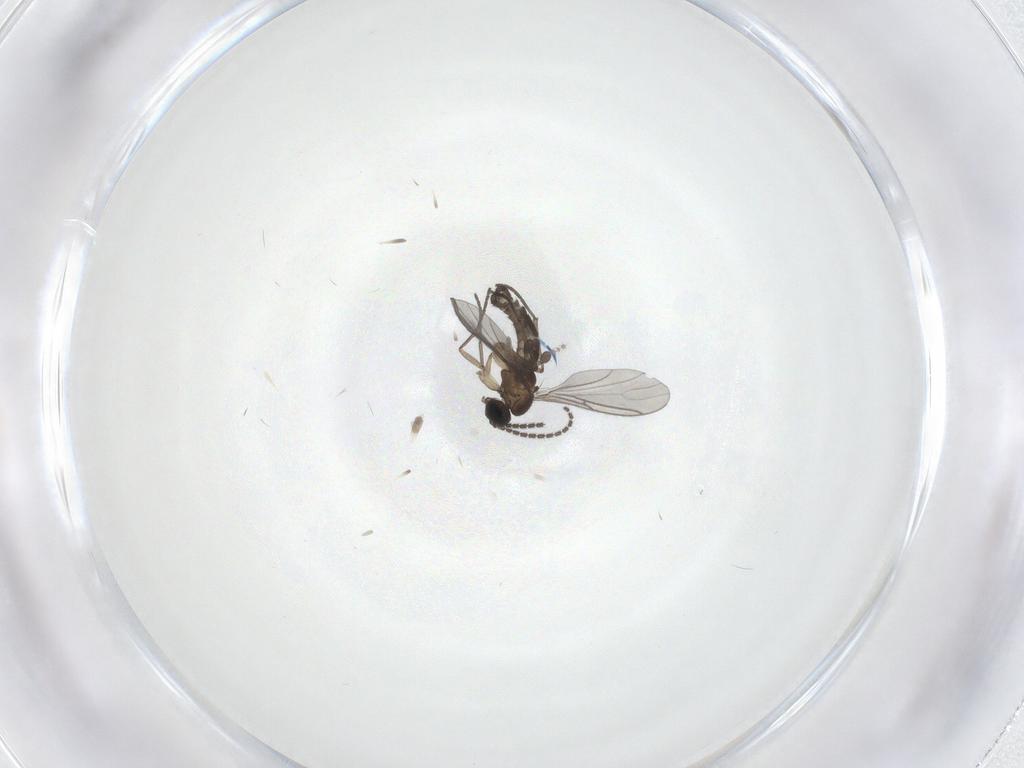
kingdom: Animalia
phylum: Arthropoda
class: Insecta
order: Diptera
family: Sciaridae
